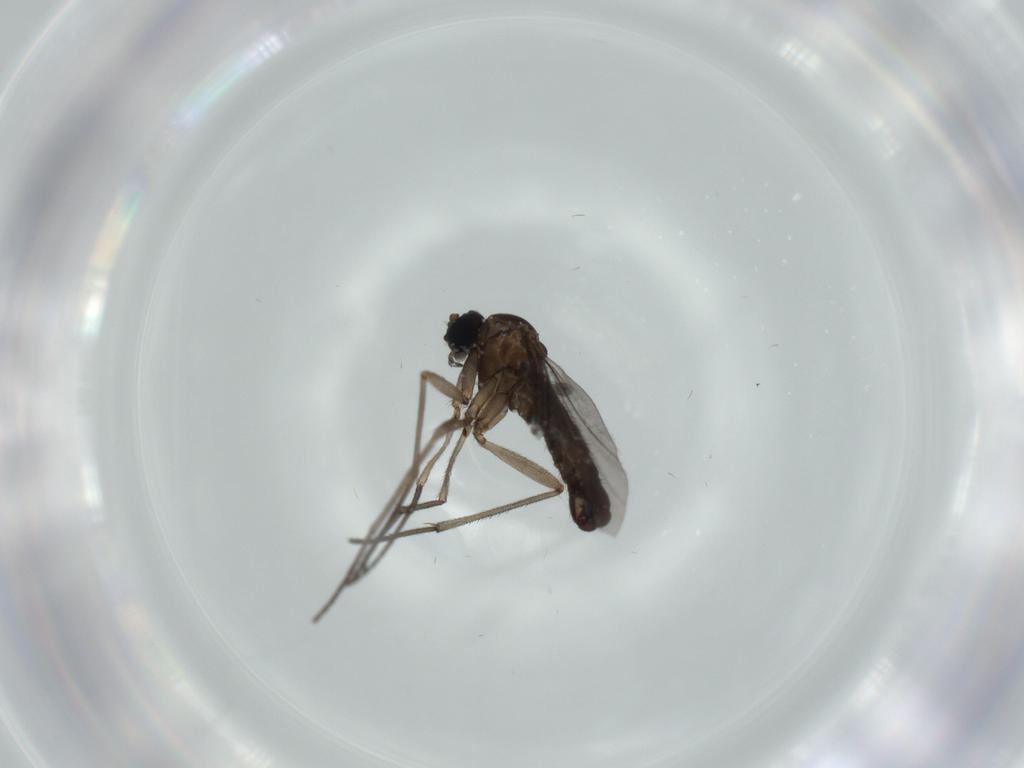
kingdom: Animalia
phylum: Arthropoda
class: Insecta
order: Diptera
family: Sciaridae
